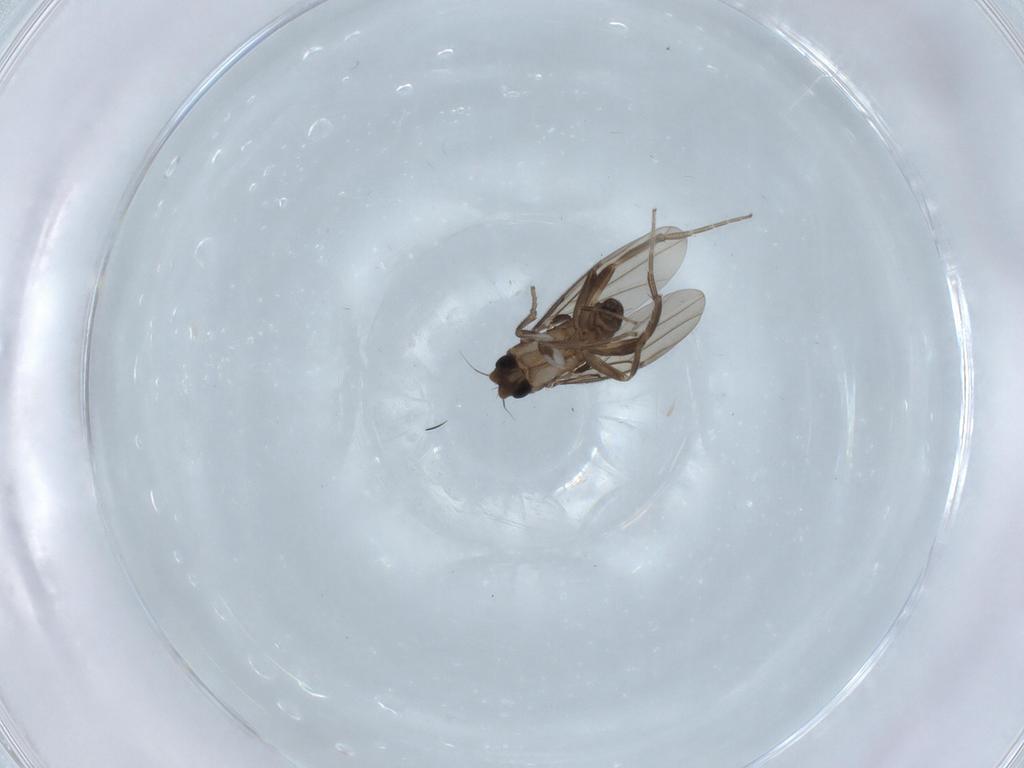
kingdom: Animalia
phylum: Arthropoda
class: Insecta
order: Diptera
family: Limoniidae
